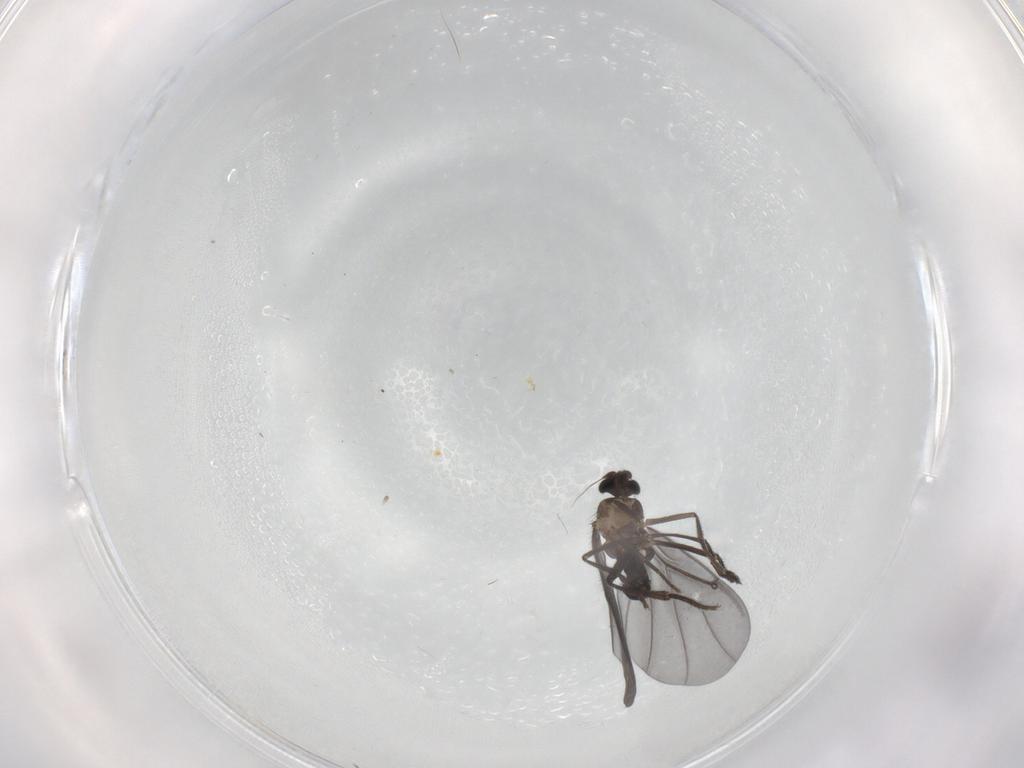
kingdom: Animalia
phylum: Arthropoda
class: Insecta
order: Diptera
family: Phoridae
